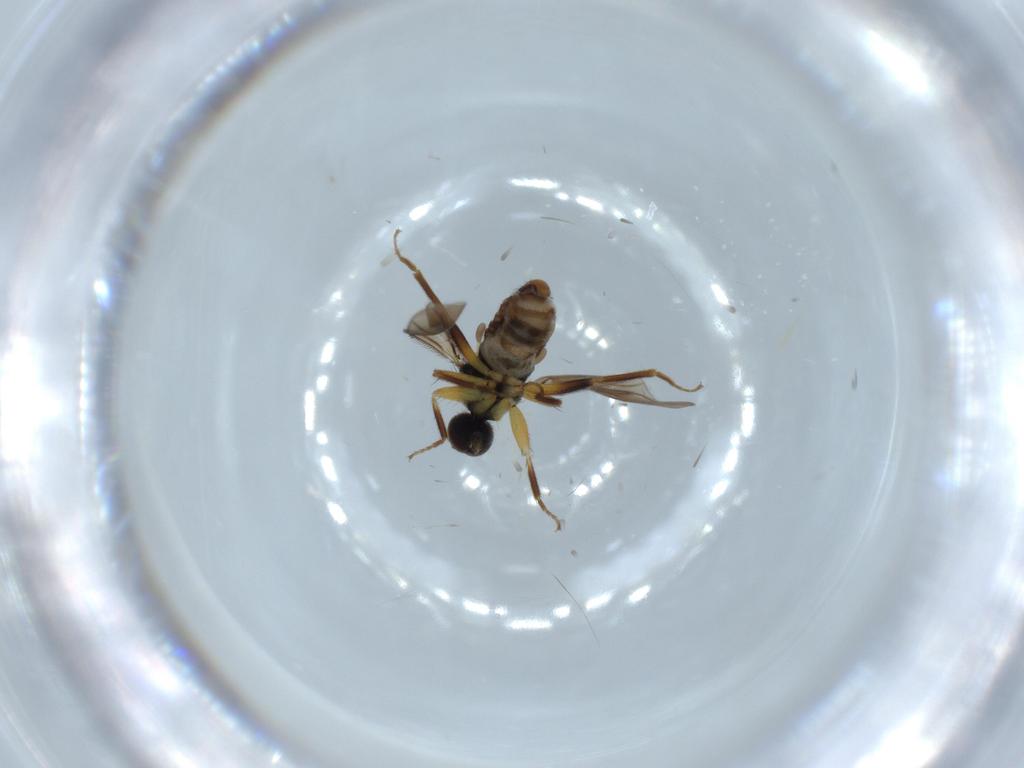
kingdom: Animalia
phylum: Arthropoda
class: Insecta
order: Diptera
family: Hybotidae
